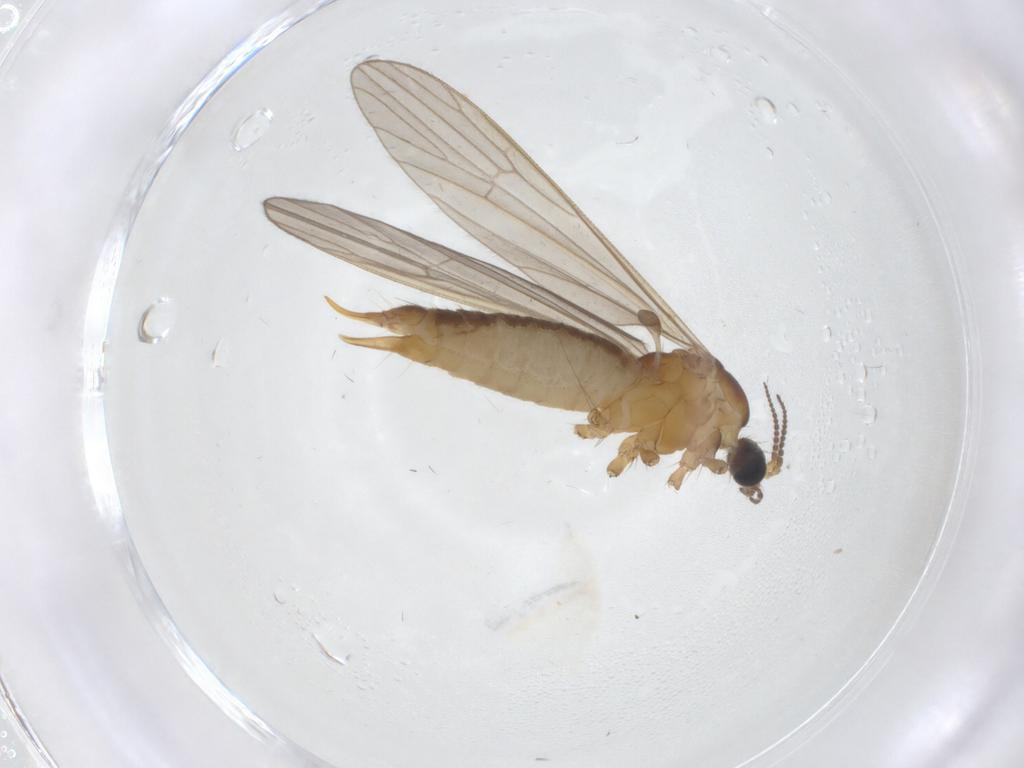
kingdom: Animalia
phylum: Arthropoda
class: Insecta
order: Diptera
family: Limoniidae
